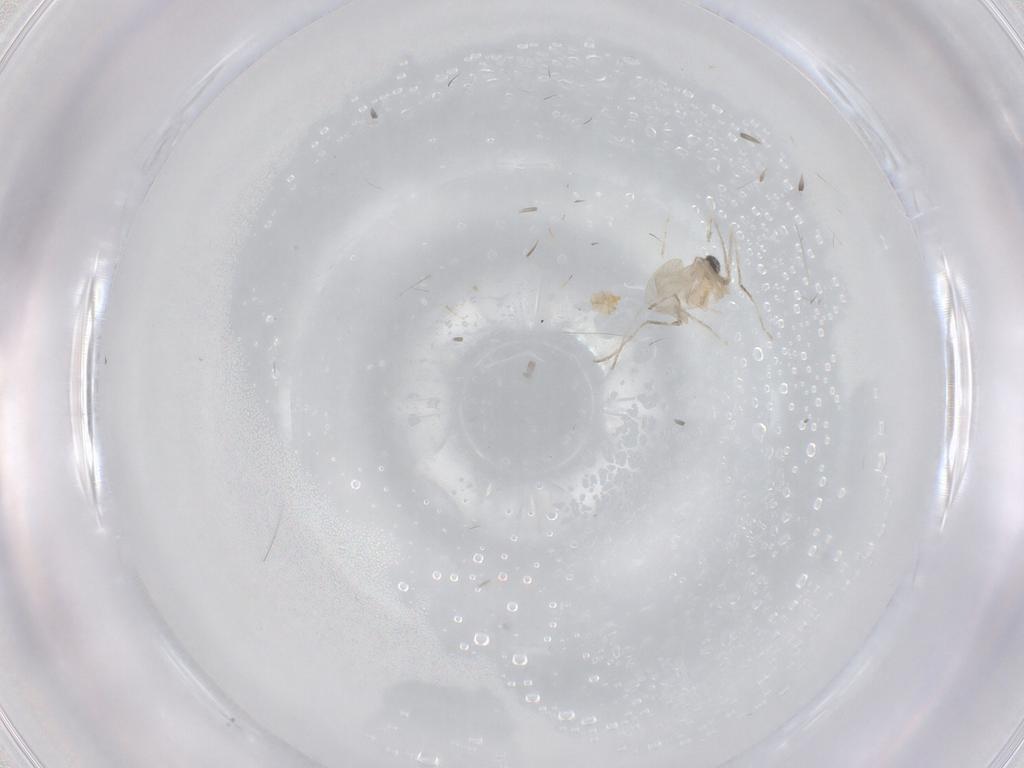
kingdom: Animalia
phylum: Arthropoda
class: Insecta
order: Diptera
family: Cecidomyiidae
